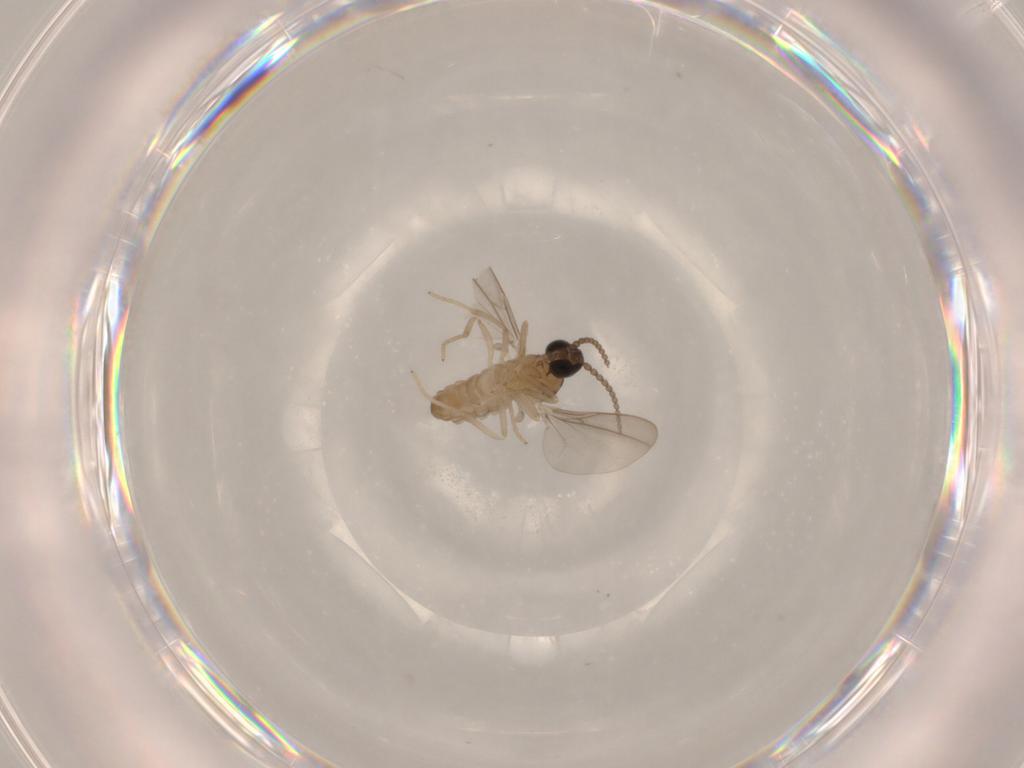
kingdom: Animalia
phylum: Arthropoda
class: Insecta
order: Diptera
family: Cecidomyiidae
